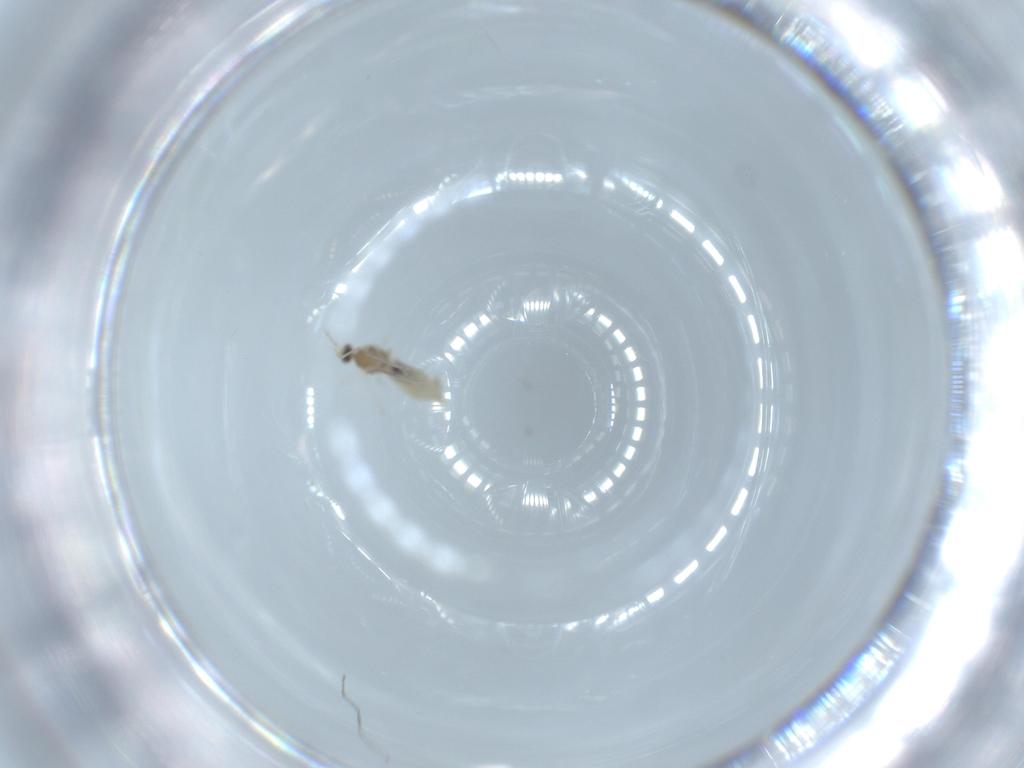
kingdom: Animalia
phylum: Arthropoda
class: Insecta
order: Diptera
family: Cecidomyiidae
